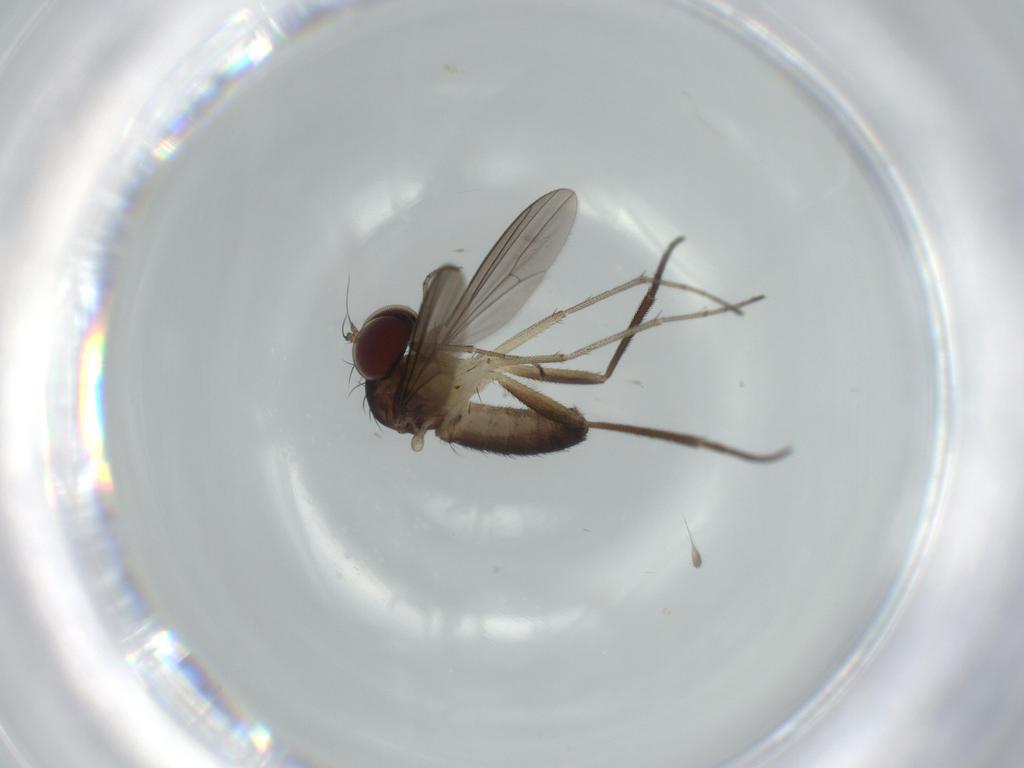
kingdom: Animalia
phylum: Arthropoda
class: Insecta
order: Diptera
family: Dolichopodidae
